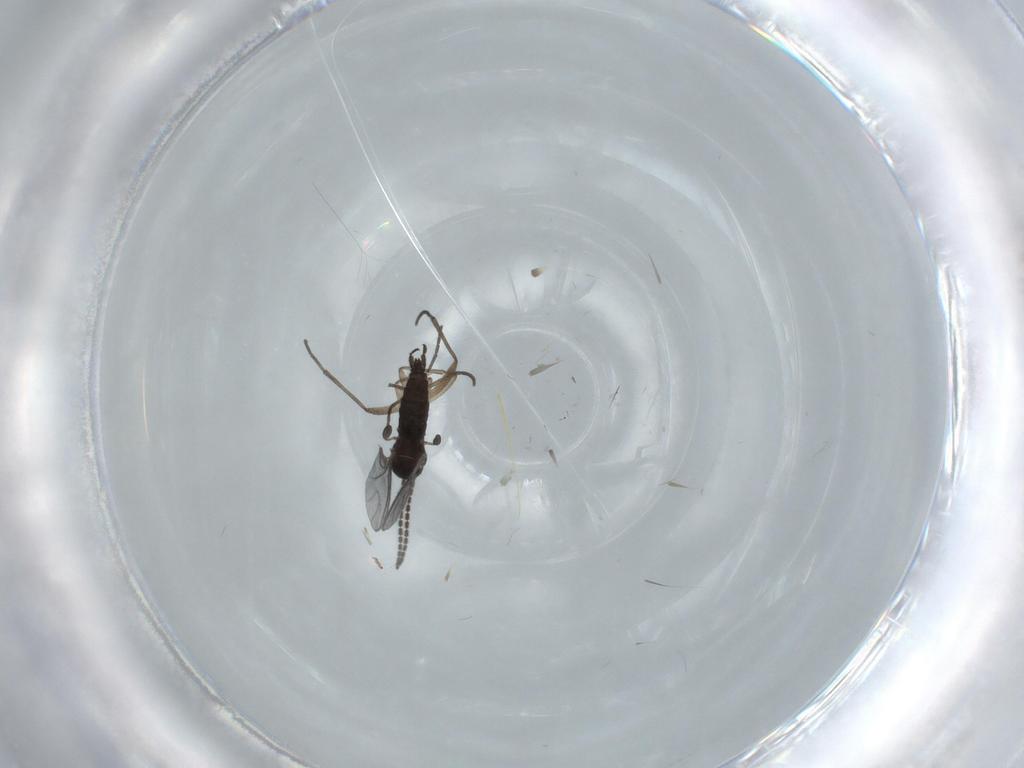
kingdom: Animalia
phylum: Arthropoda
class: Insecta
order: Diptera
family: Sciaridae
